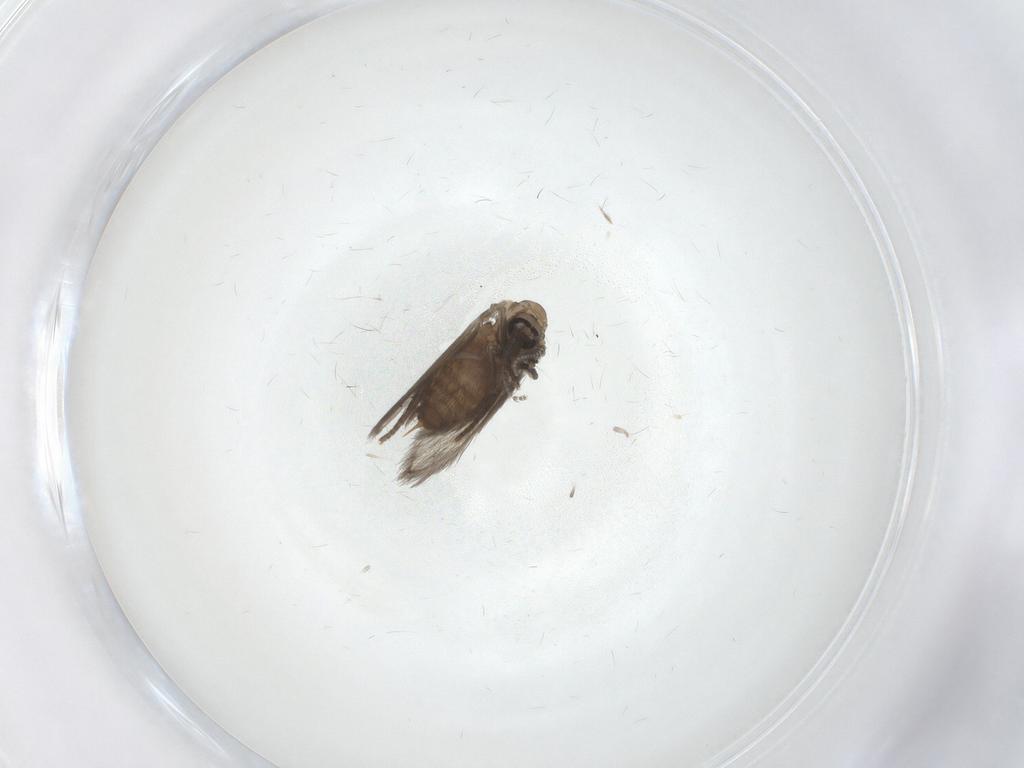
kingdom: Animalia
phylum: Arthropoda
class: Insecta
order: Diptera
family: Psychodidae
